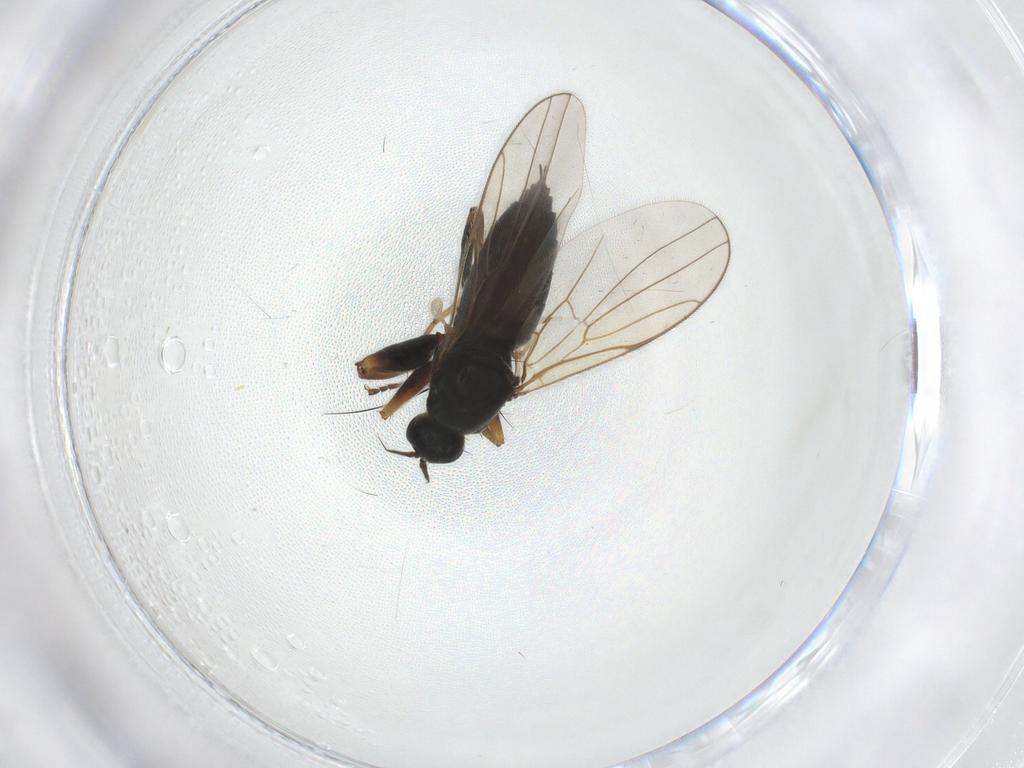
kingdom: Animalia
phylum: Arthropoda
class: Insecta
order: Diptera
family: Hybotidae
